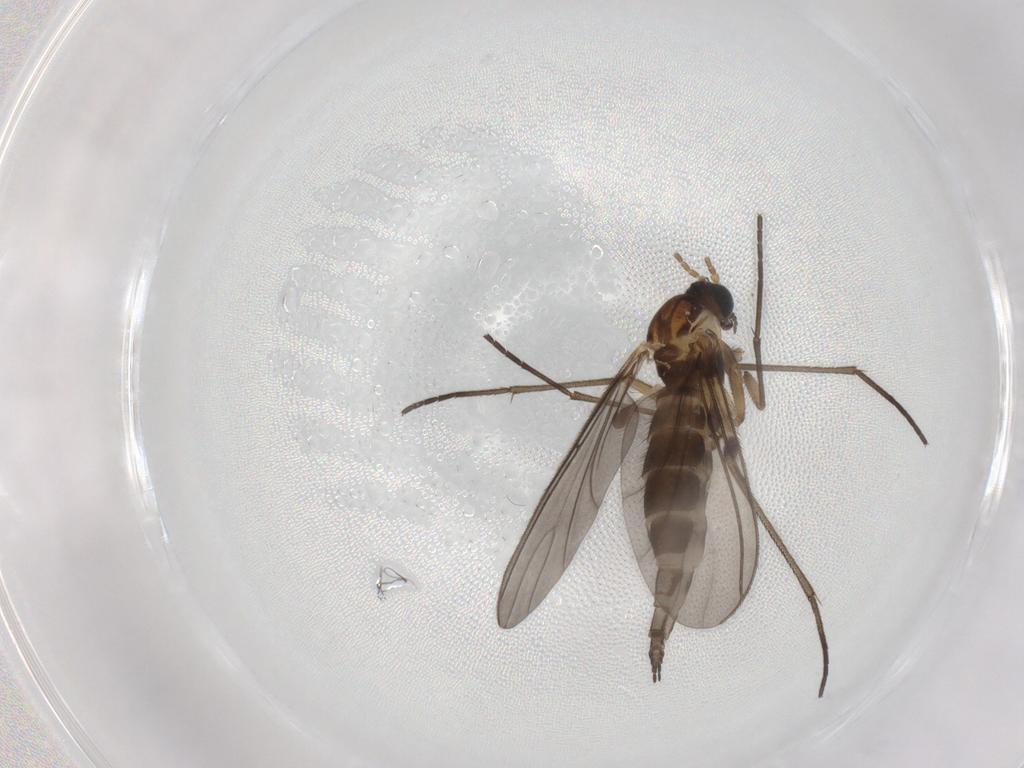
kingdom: Animalia
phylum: Arthropoda
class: Insecta
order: Diptera
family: Sciaridae
